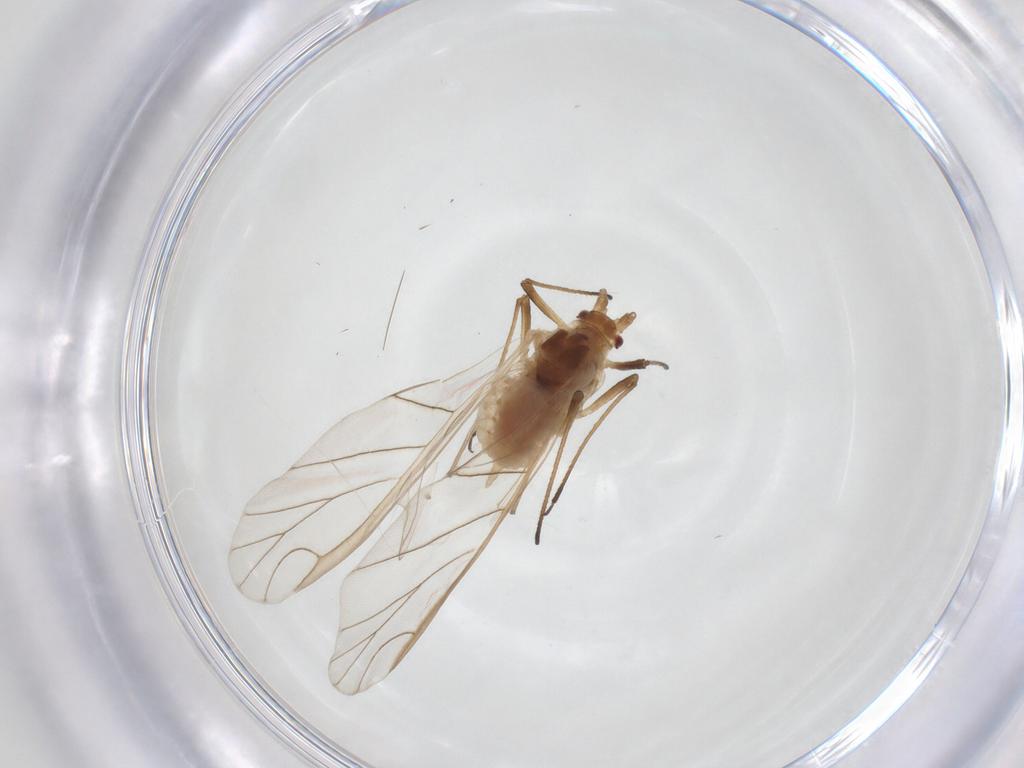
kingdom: Animalia
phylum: Arthropoda
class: Insecta
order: Hemiptera
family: Aphididae
